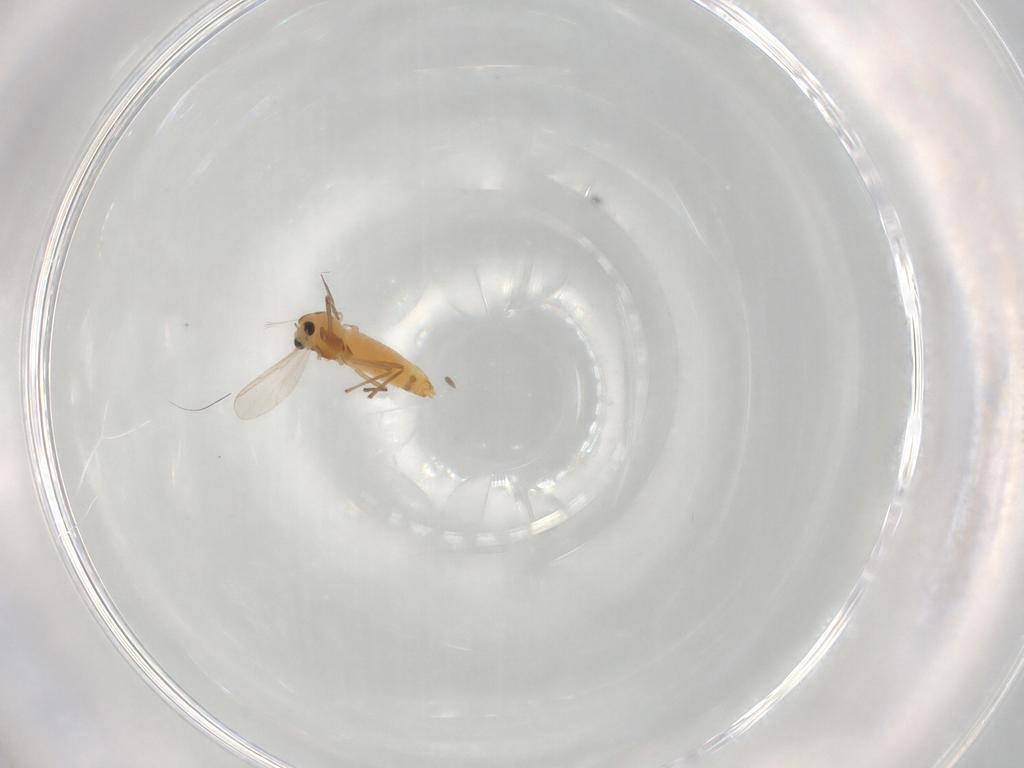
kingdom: Animalia
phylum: Arthropoda
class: Insecta
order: Diptera
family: Chironomidae
